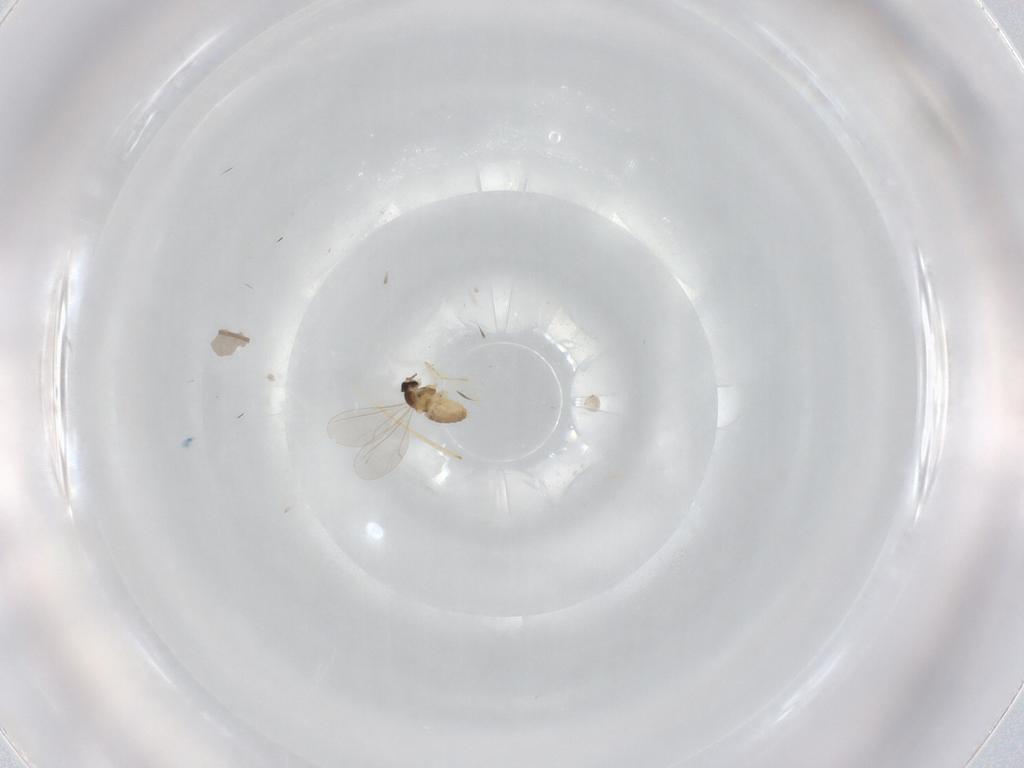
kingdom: Animalia
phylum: Arthropoda
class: Insecta
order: Diptera
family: Cecidomyiidae
